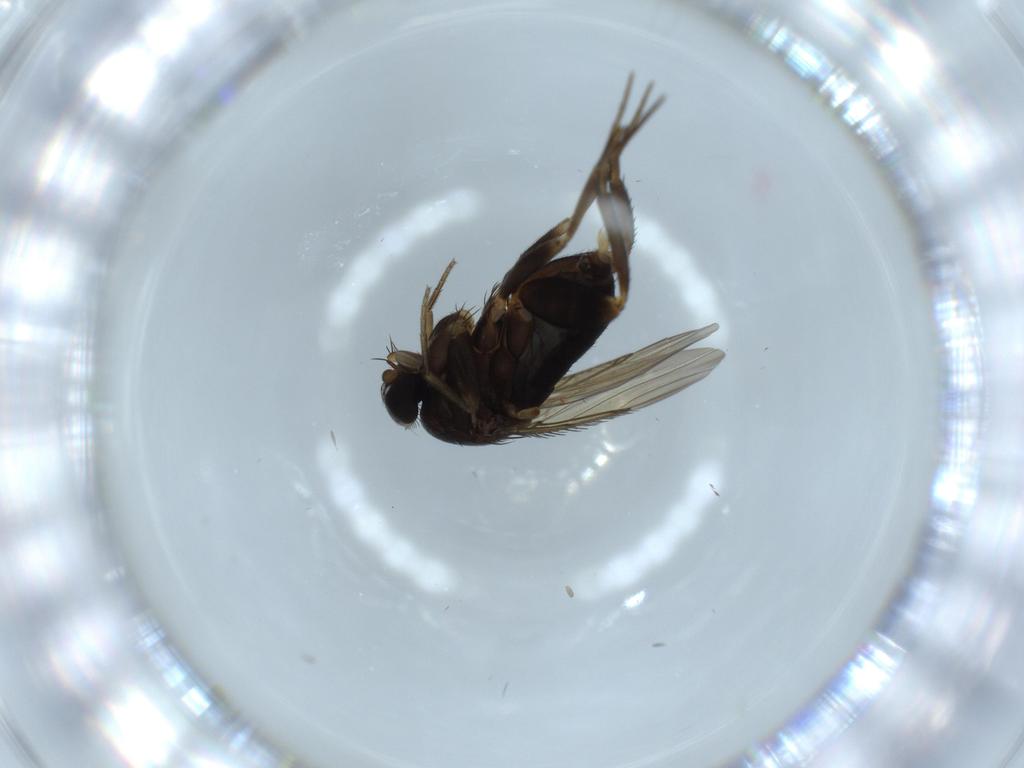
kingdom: Animalia
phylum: Arthropoda
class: Insecta
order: Diptera
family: Phoridae
